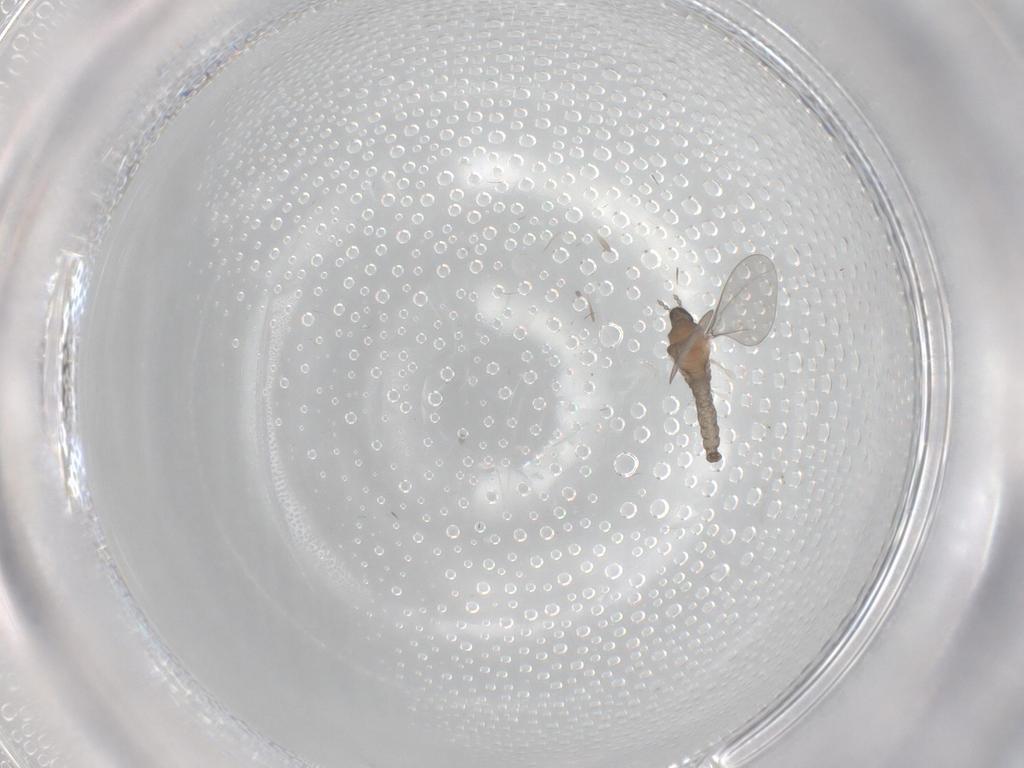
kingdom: Animalia
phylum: Arthropoda
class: Insecta
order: Diptera
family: Cecidomyiidae
